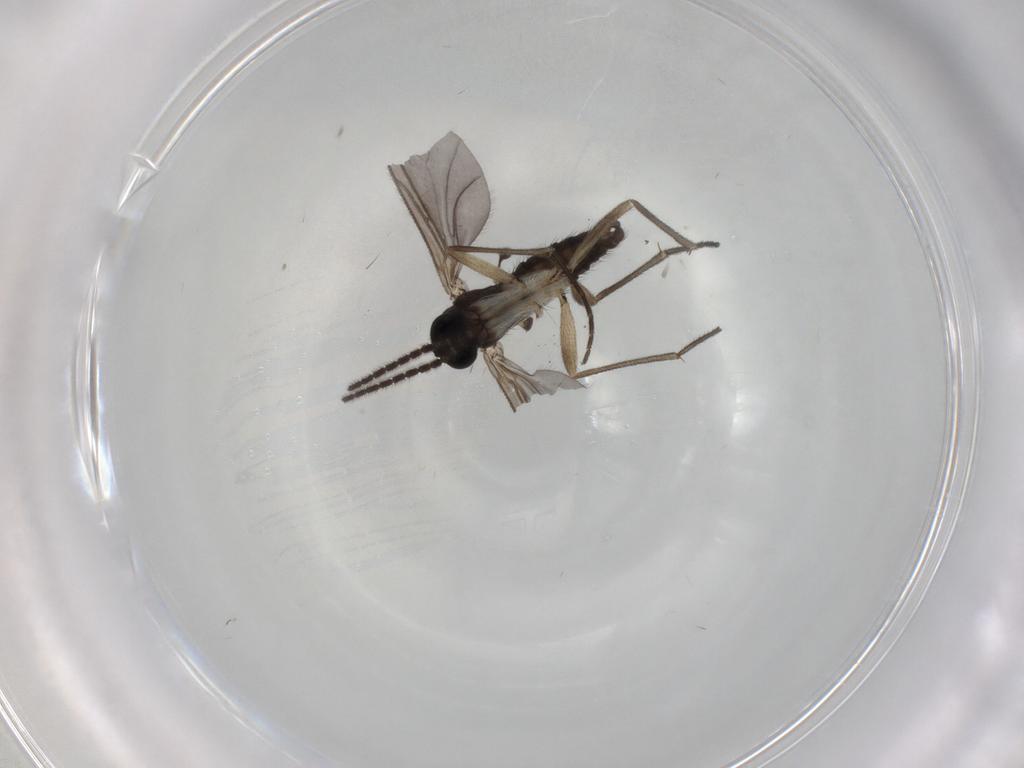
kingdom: Animalia
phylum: Arthropoda
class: Insecta
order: Diptera
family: Sciaridae
